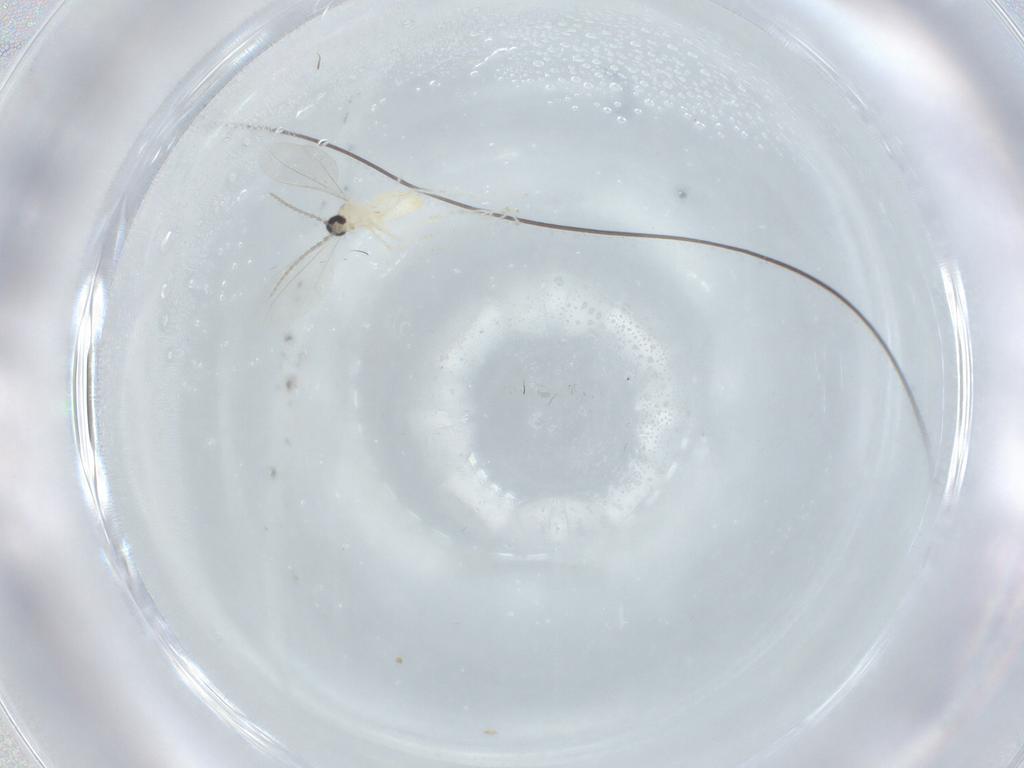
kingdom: Animalia
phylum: Arthropoda
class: Insecta
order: Diptera
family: Cecidomyiidae
